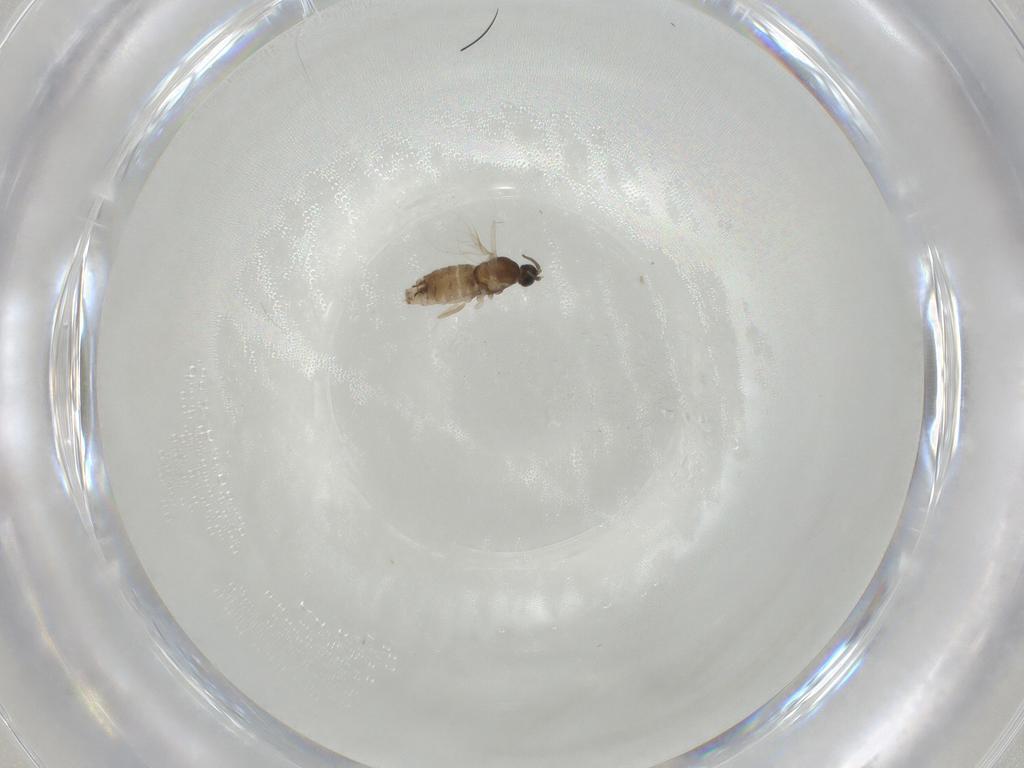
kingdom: Animalia
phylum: Arthropoda
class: Insecta
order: Diptera
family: Cecidomyiidae
